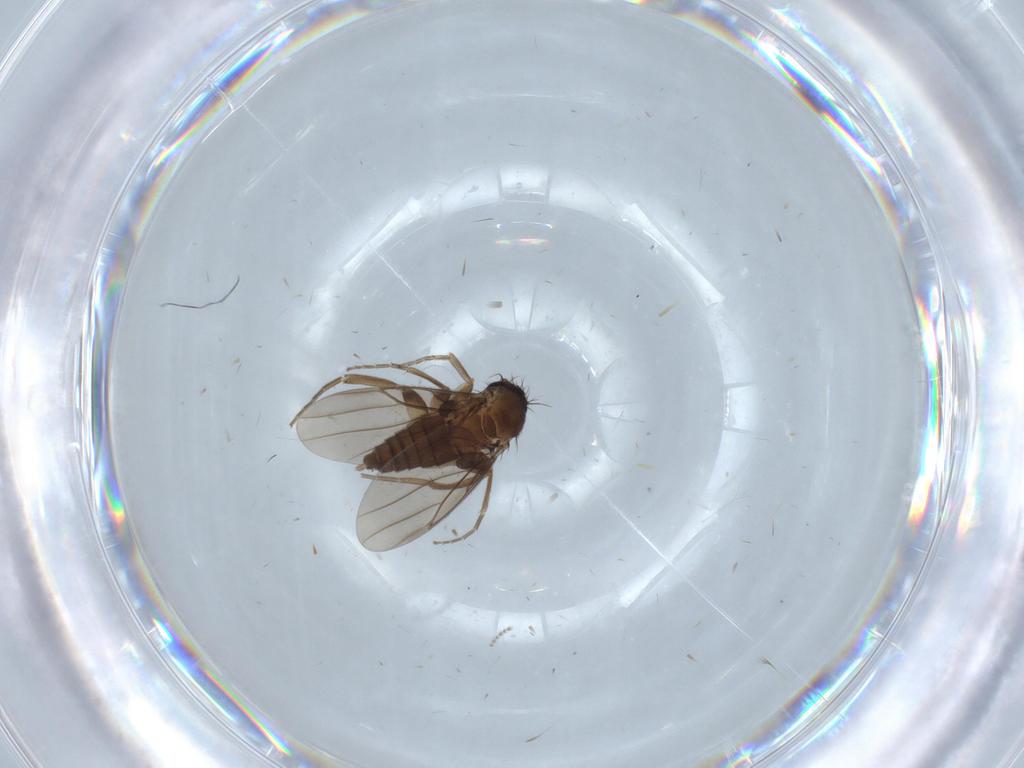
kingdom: Animalia
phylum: Arthropoda
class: Insecta
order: Diptera
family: Cecidomyiidae
